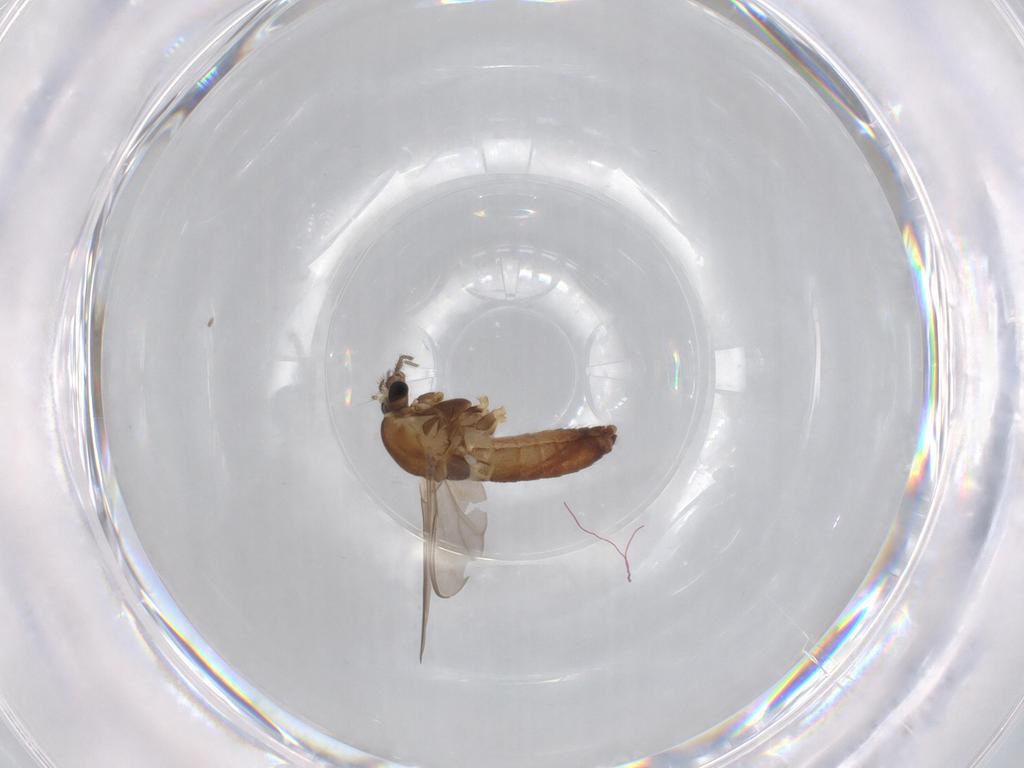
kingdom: Animalia
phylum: Arthropoda
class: Insecta
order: Diptera
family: Chironomidae
